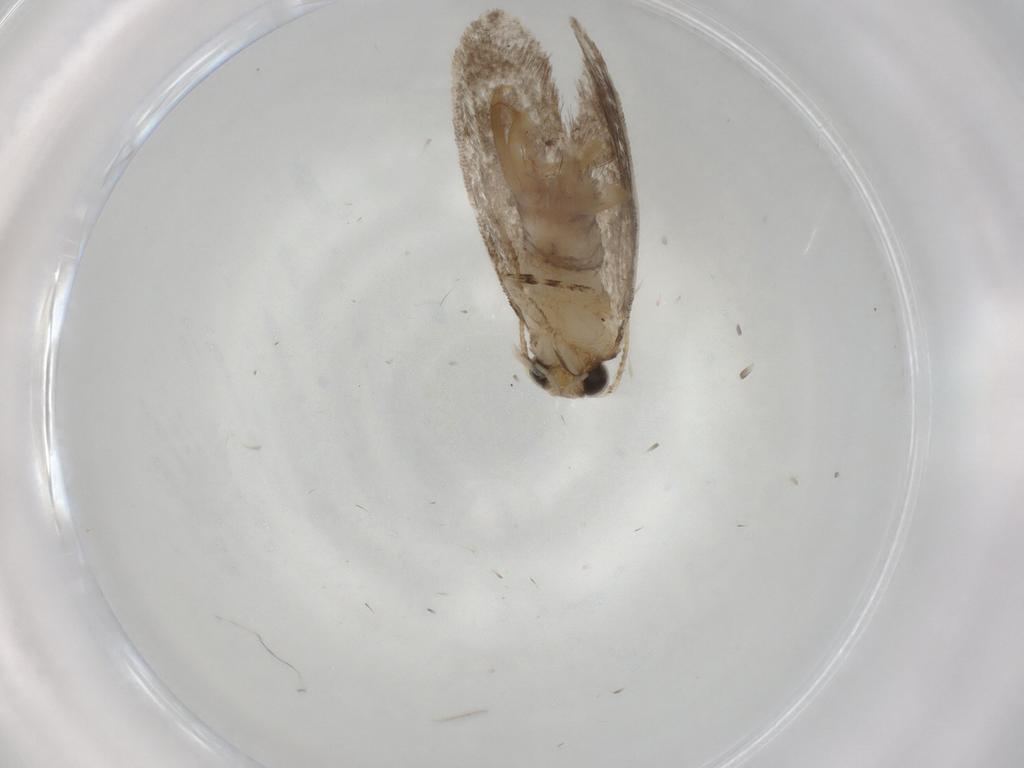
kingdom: Animalia
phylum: Arthropoda
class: Insecta
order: Lepidoptera
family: Tineidae
